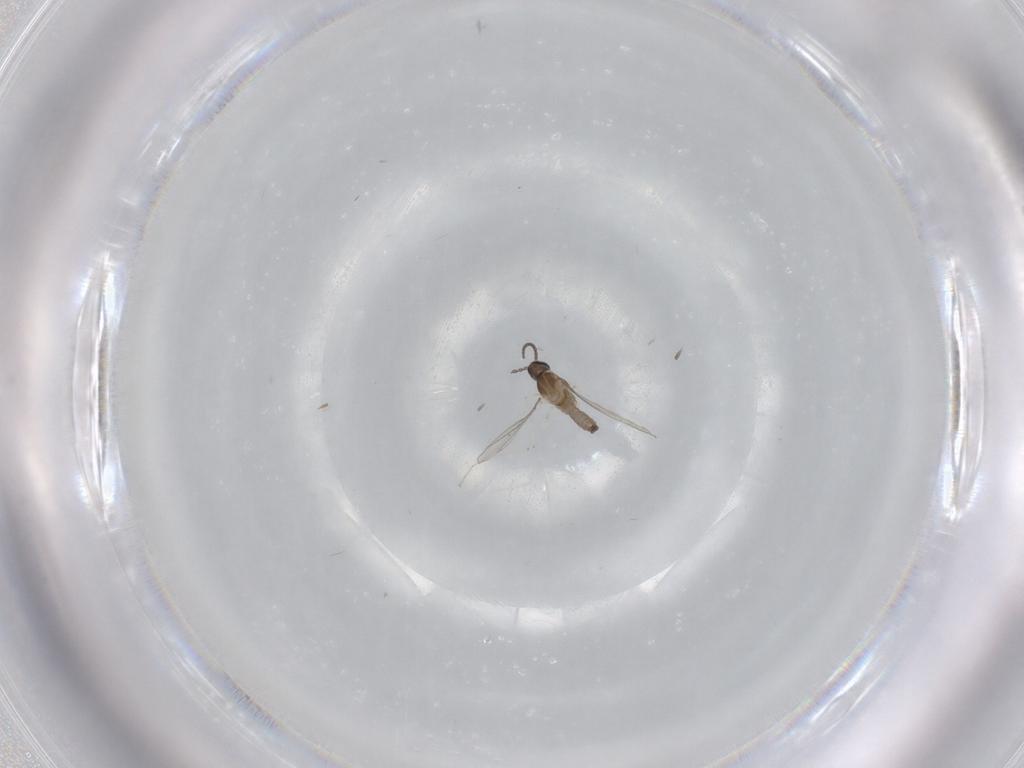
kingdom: Animalia
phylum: Arthropoda
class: Insecta
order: Diptera
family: Cecidomyiidae
